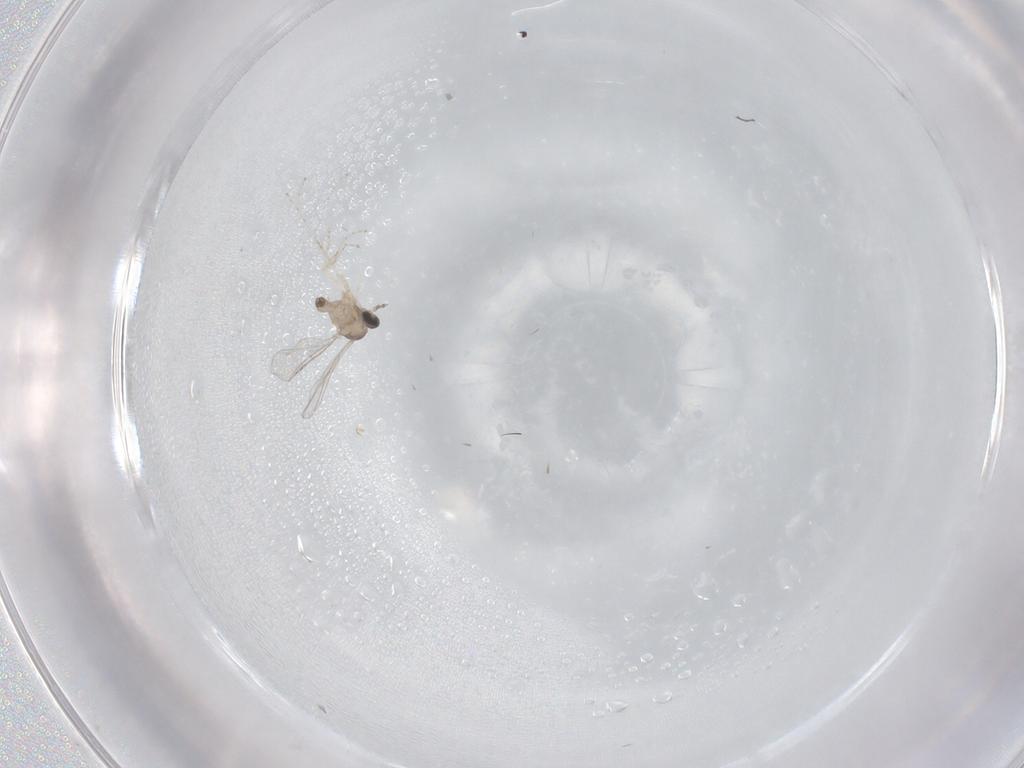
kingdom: Animalia
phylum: Arthropoda
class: Insecta
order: Diptera
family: Cecidomyiidae
